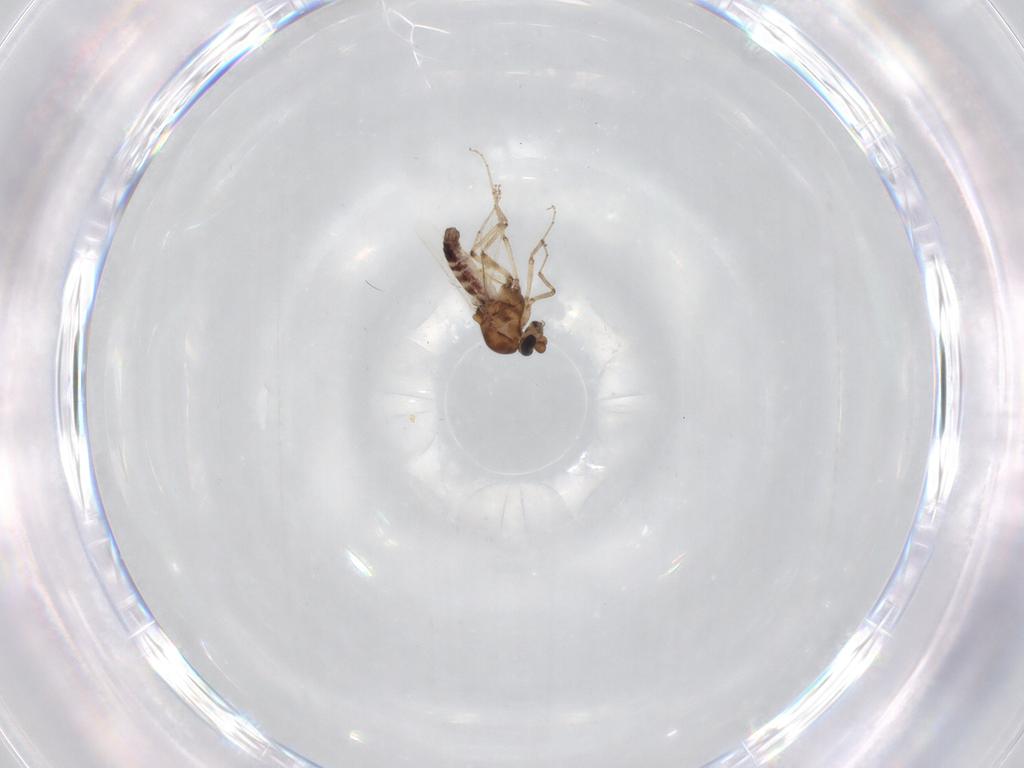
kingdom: Animalia
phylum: Arthropoda
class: Insecta
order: Diptera
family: Ceratopogonidae
